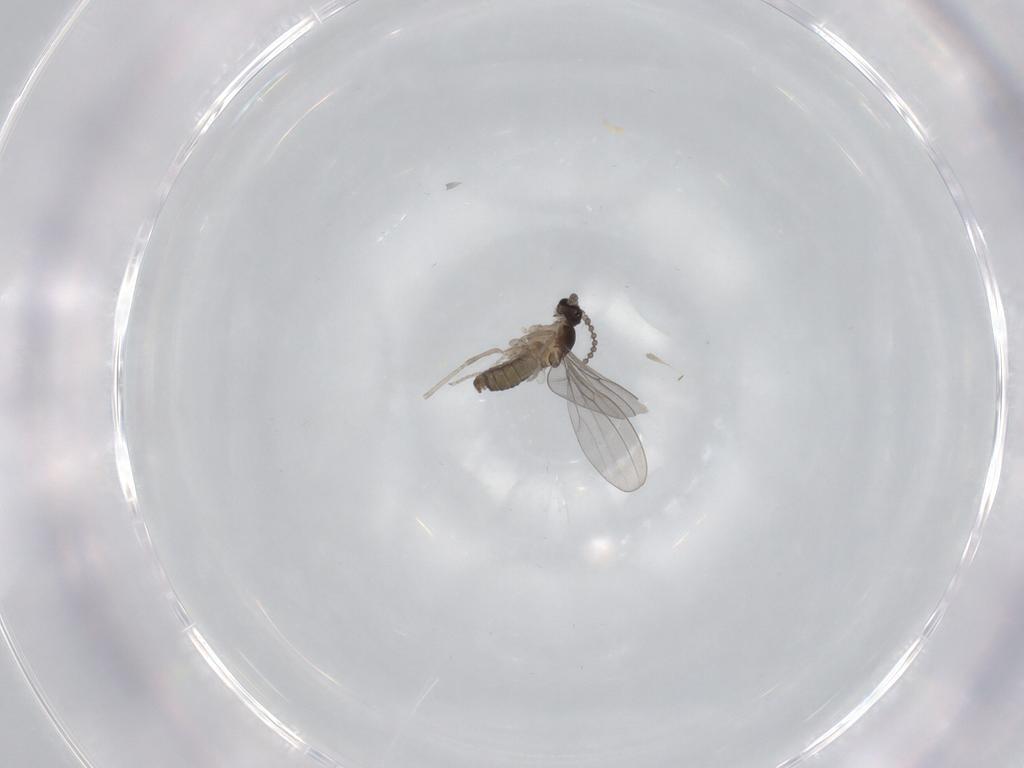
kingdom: Animalia
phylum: Arthropoda
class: Insecta
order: Diptera
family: Cecidomyiidae
